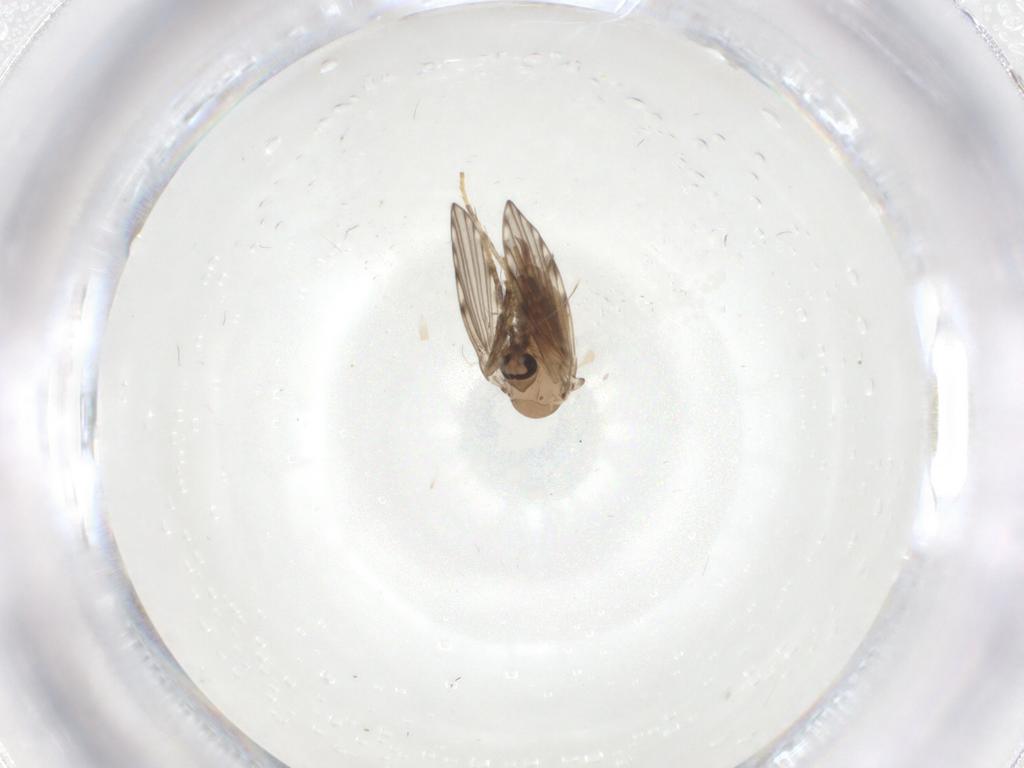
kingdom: Animalia
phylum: Arthropoda
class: Insecta
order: Diptera
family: Psychodidae
